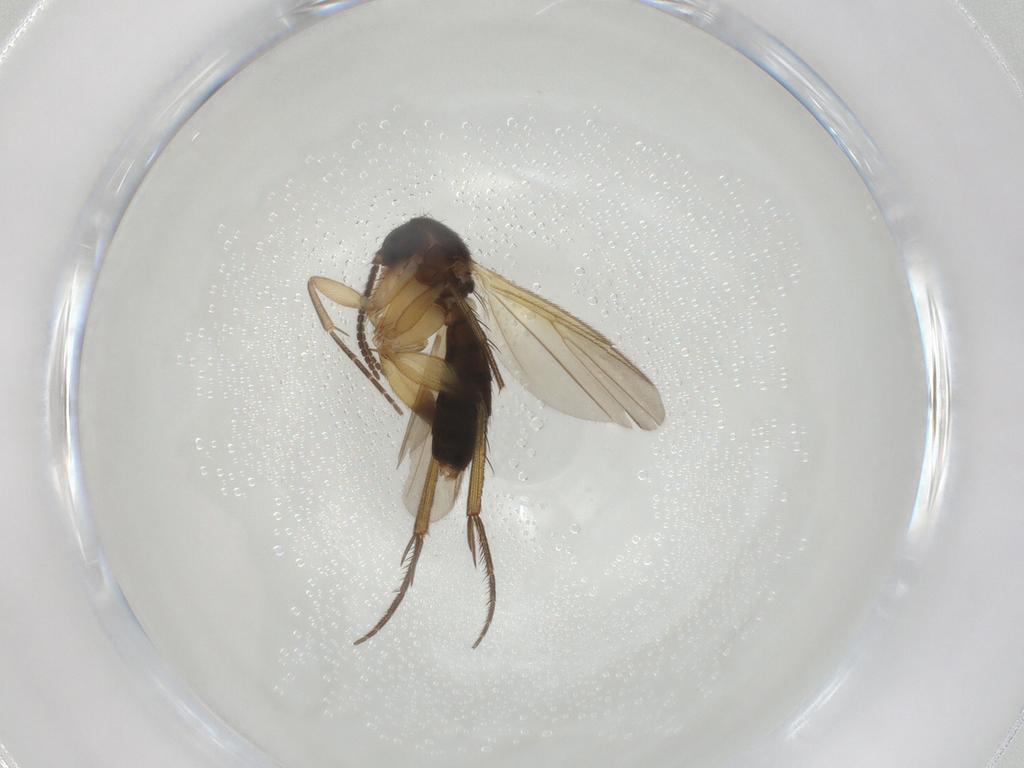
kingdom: Animalia
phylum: Arthropoda
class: Insecta
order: Diptera
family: Mycetophilidae
